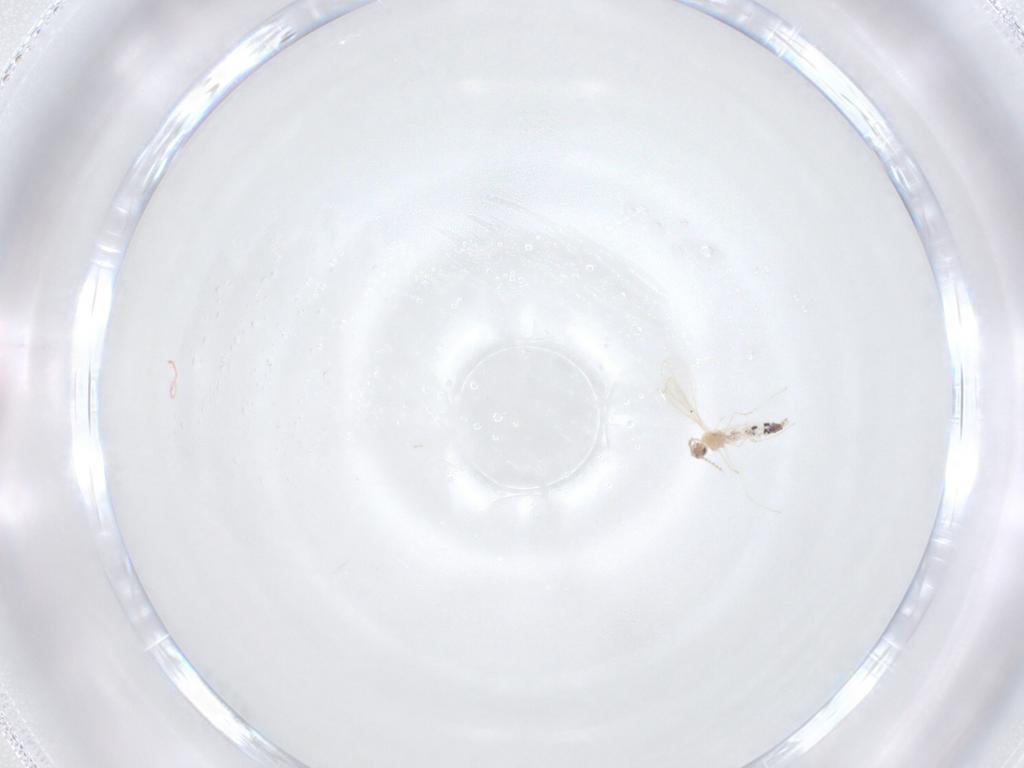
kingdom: Animalia
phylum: Arthropoda
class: Insecta
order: Diptera
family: Cecidomyiidae
